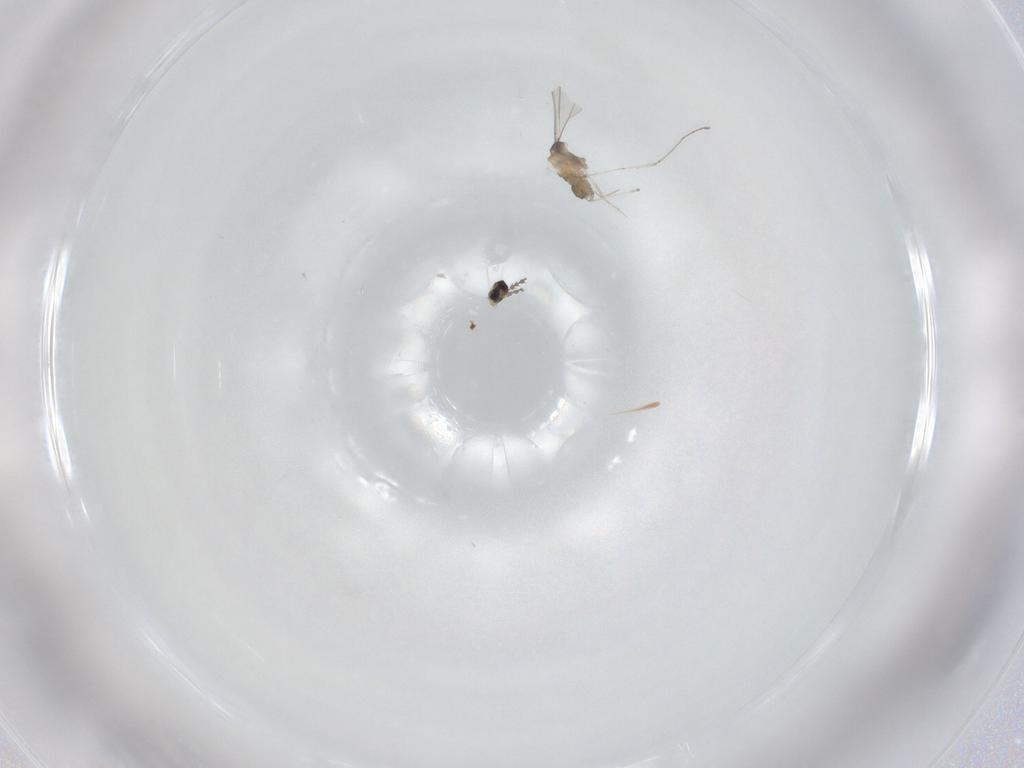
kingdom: Animalia
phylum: Arthropoda
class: Insecta
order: Diptera
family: Cecidomyiidae
